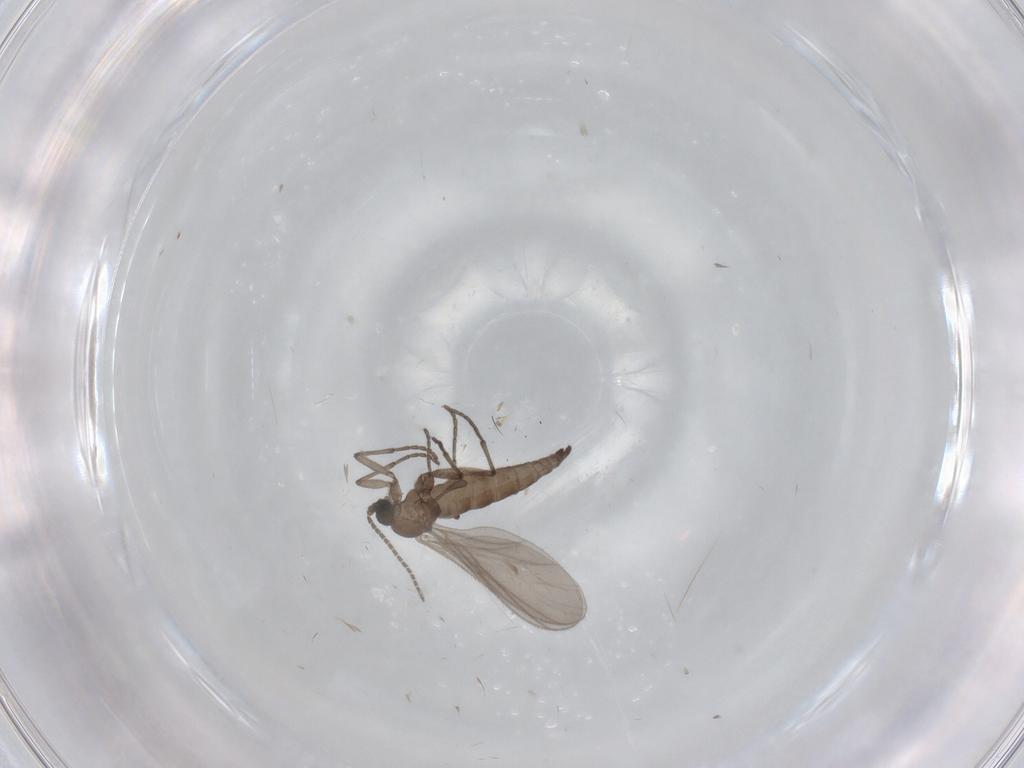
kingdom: Animalia
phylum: Arthropoda
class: Insecta
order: Diptera
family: Sciaridae
